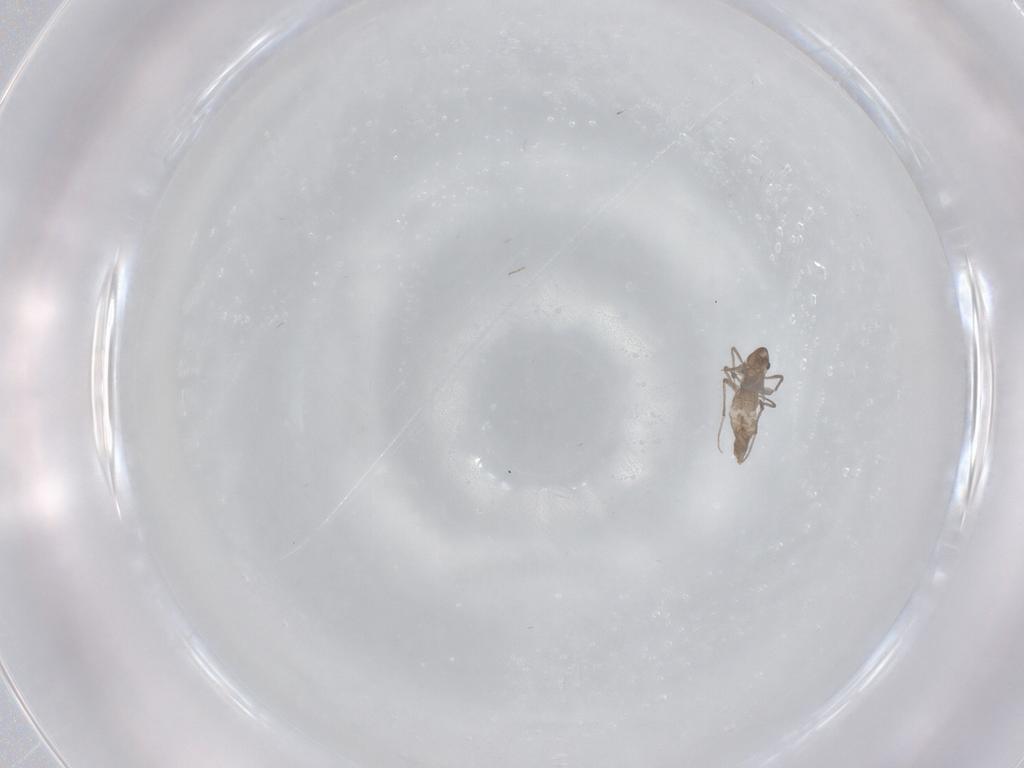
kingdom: Animalia
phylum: Arthropoda
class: Insecta
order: Diptera
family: Chironomidae
